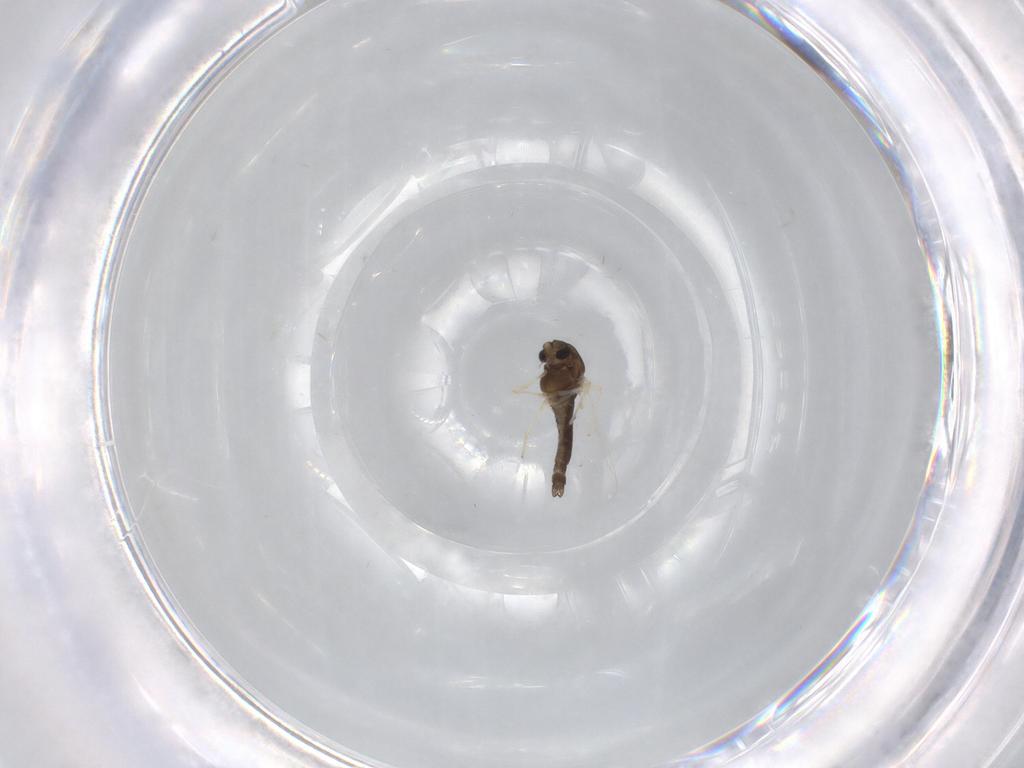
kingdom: Animalia
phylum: Arthropoda
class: Insecta
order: Diptera
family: Chironomidae
